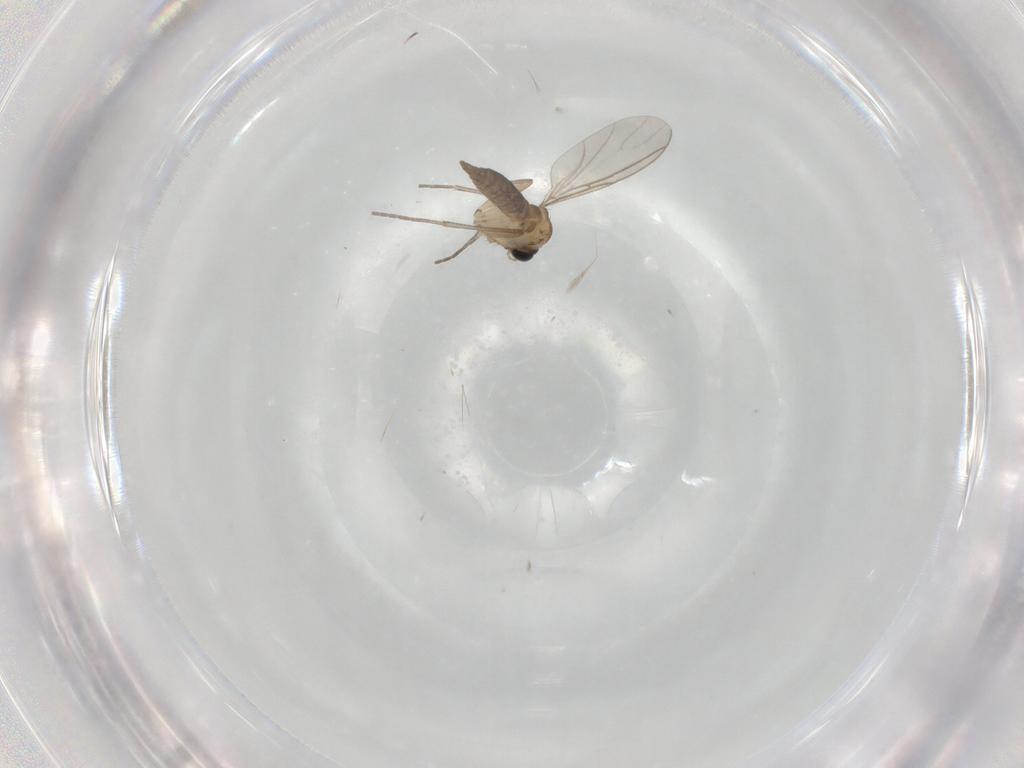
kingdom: Animalia
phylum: Arthropoda
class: Insecta
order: Diptera
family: Sciaridae
